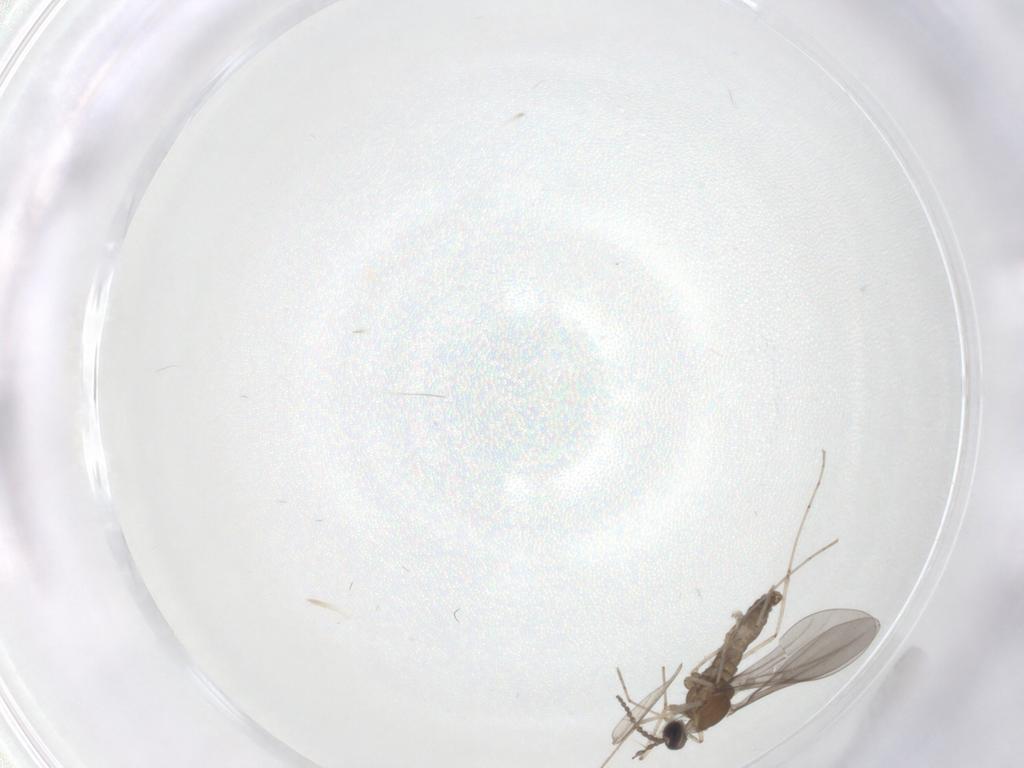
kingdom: Animalia
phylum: Arthropoda
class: Insecta
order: Diptera
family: Cecidomyiidae
